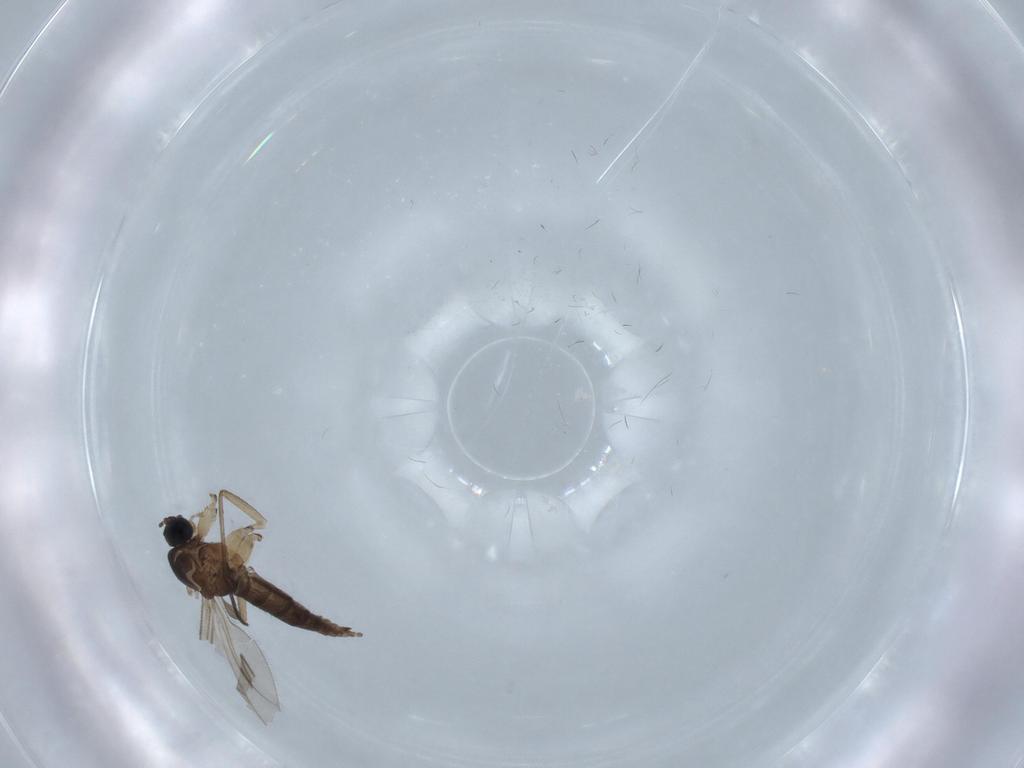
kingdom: Animalia
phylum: Arthropoda
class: Insecta
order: Diptera
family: Sciaridae
